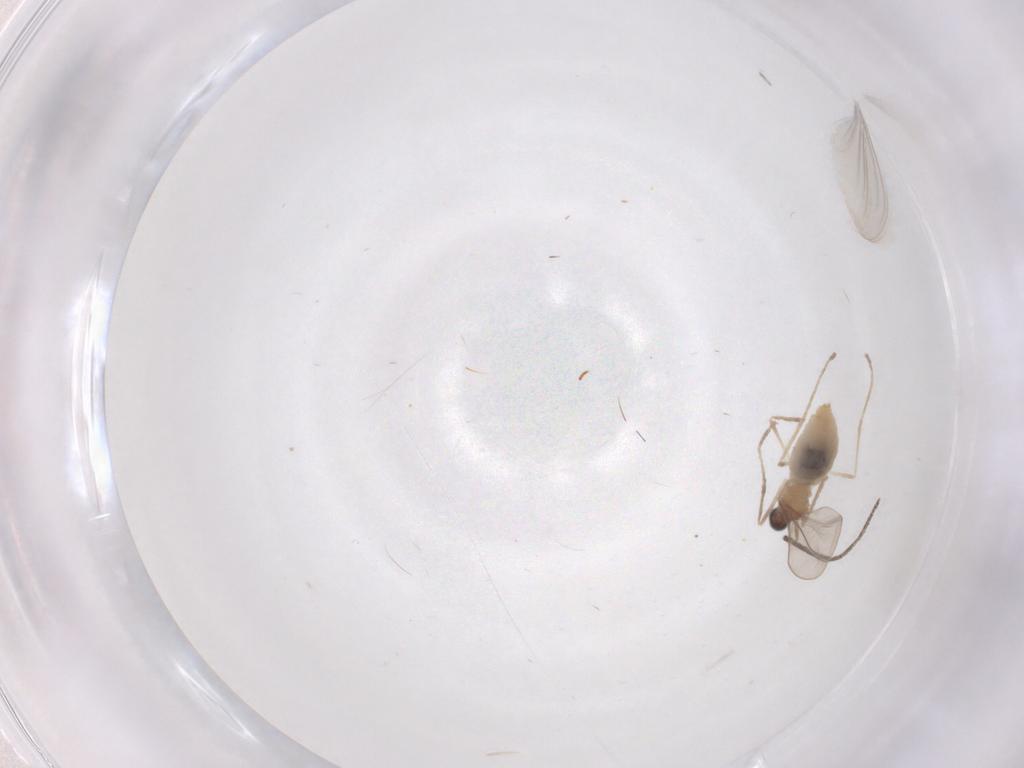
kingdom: Animalia
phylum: Arthropoda
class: Insecta
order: Diptera
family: Cecidomyiidae
